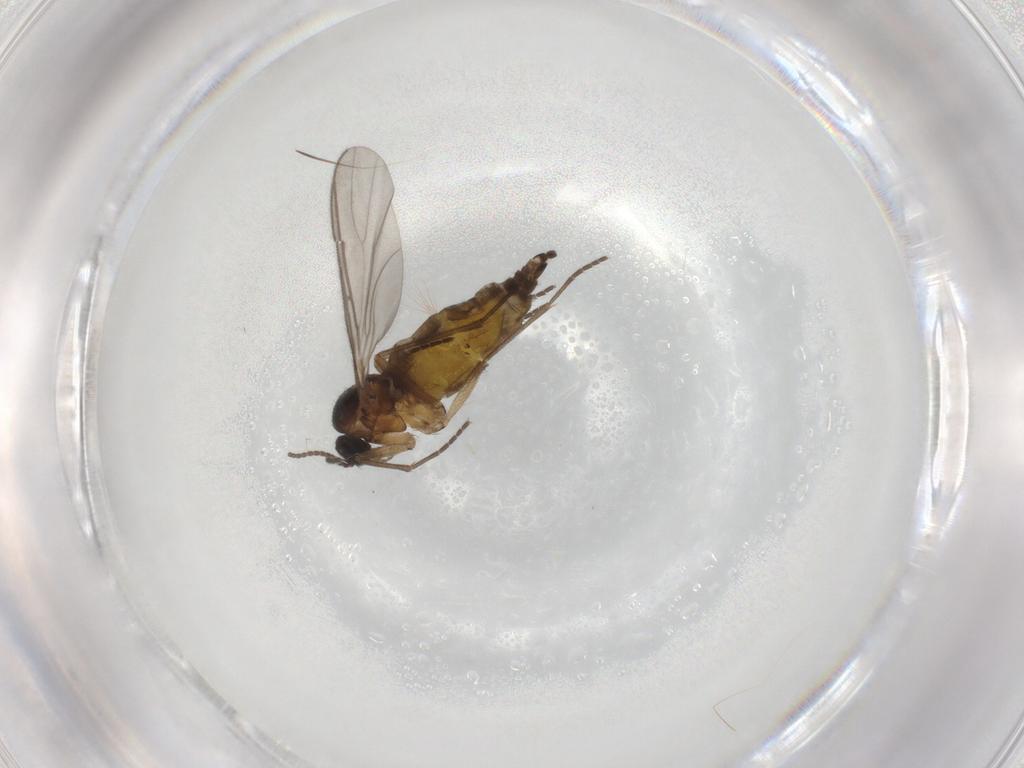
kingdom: Animalia
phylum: Arthropoda
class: Insecta
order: Diptera
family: Sciaridae
